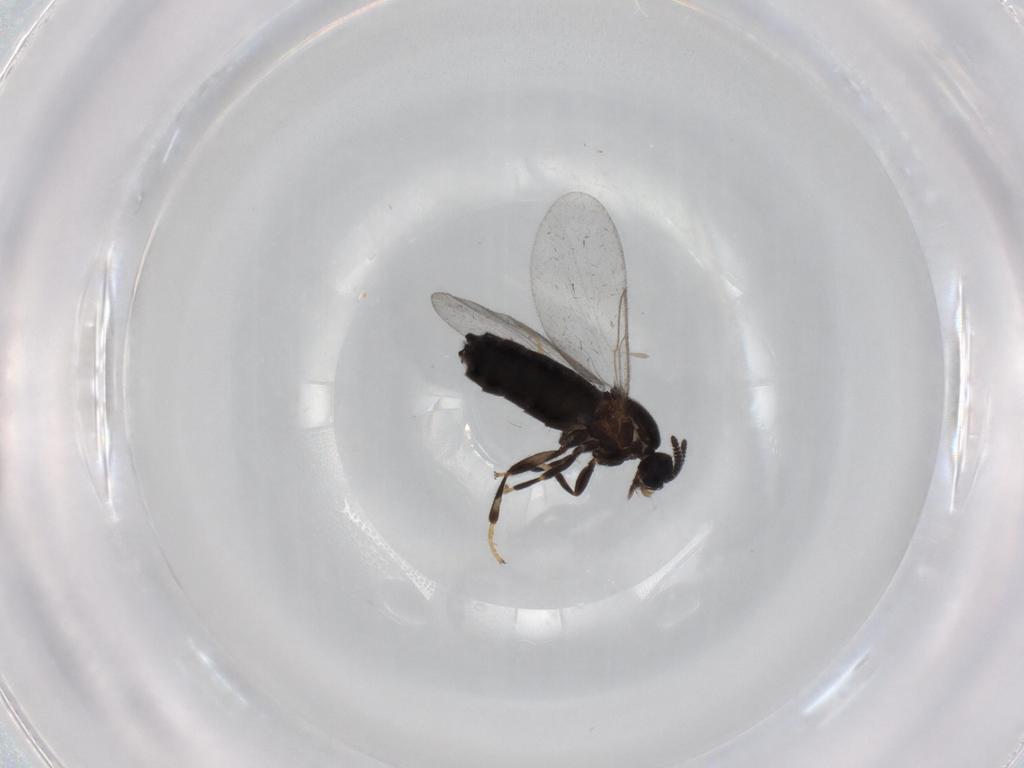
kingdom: Animalia
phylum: Arthropoda
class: Insecta
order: Diptera
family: Scatopsidae
